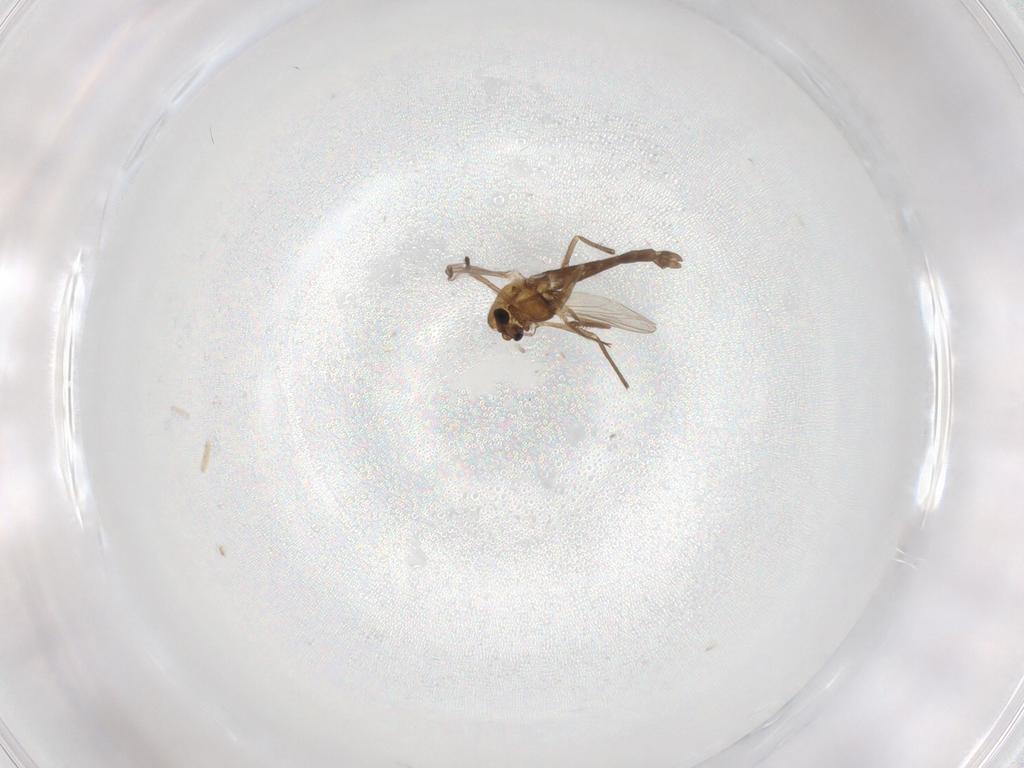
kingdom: Animalia
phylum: Arthropoda
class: Insecta
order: Diptera
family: Chironomidae
